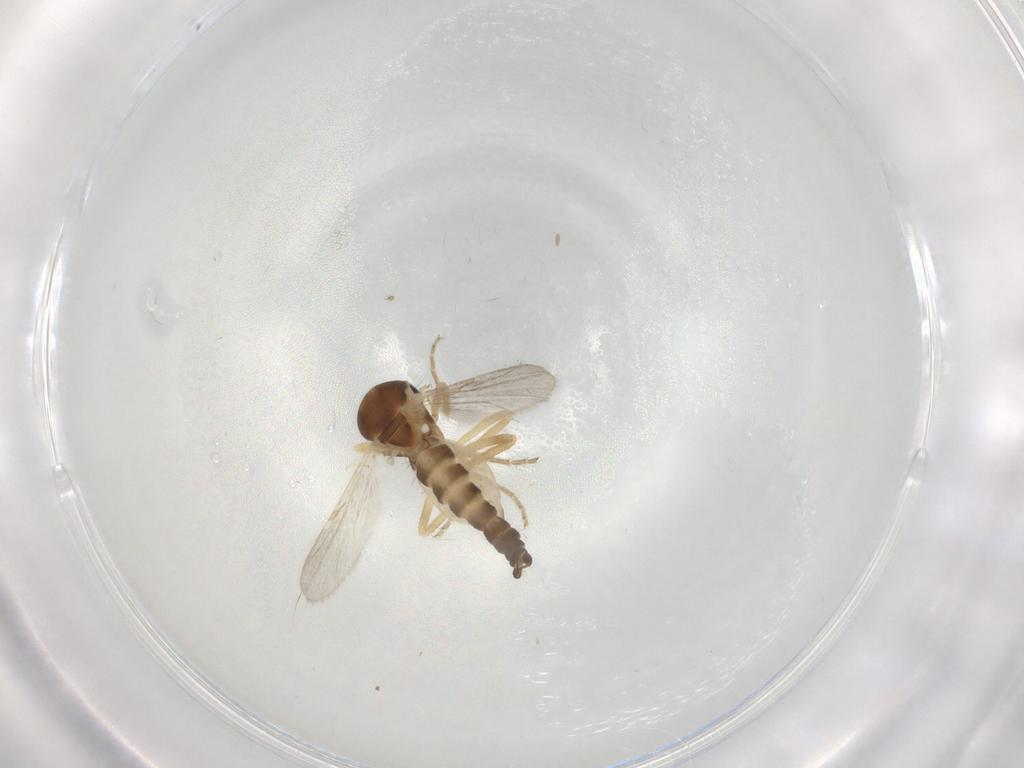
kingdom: Animalia
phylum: Arthropoda
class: Insecta
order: Diptera
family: Ceratopogonidae
